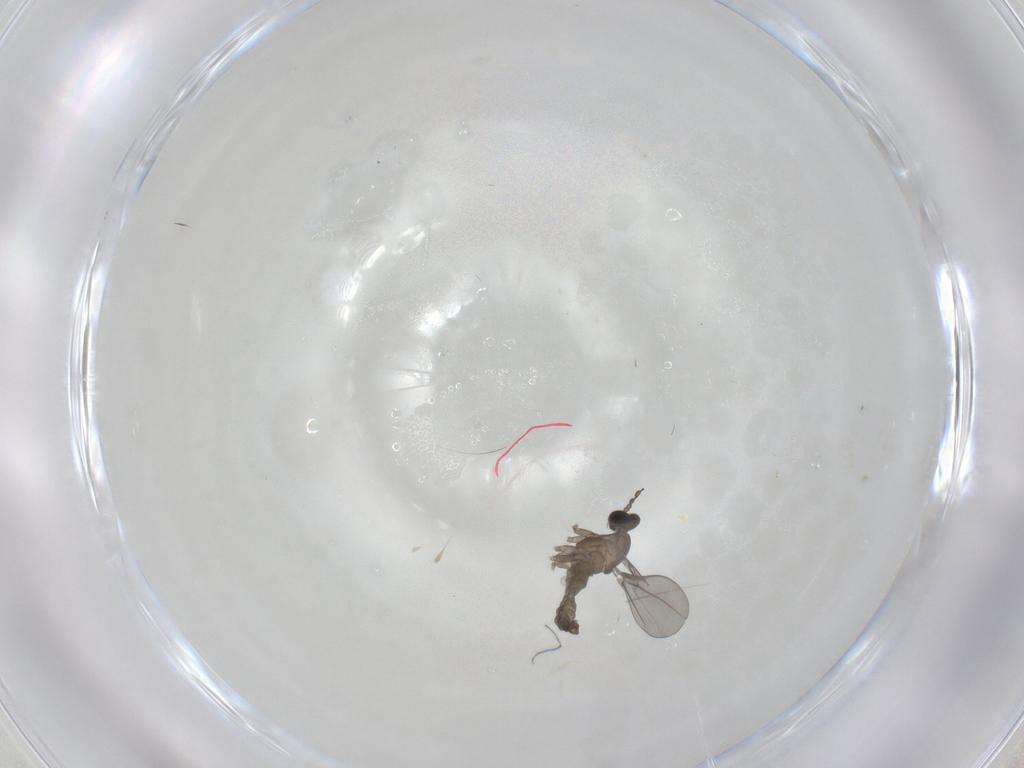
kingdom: Animalia
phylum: Arthropoda
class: Insecta
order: Diptera
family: Cecidomyiidae
